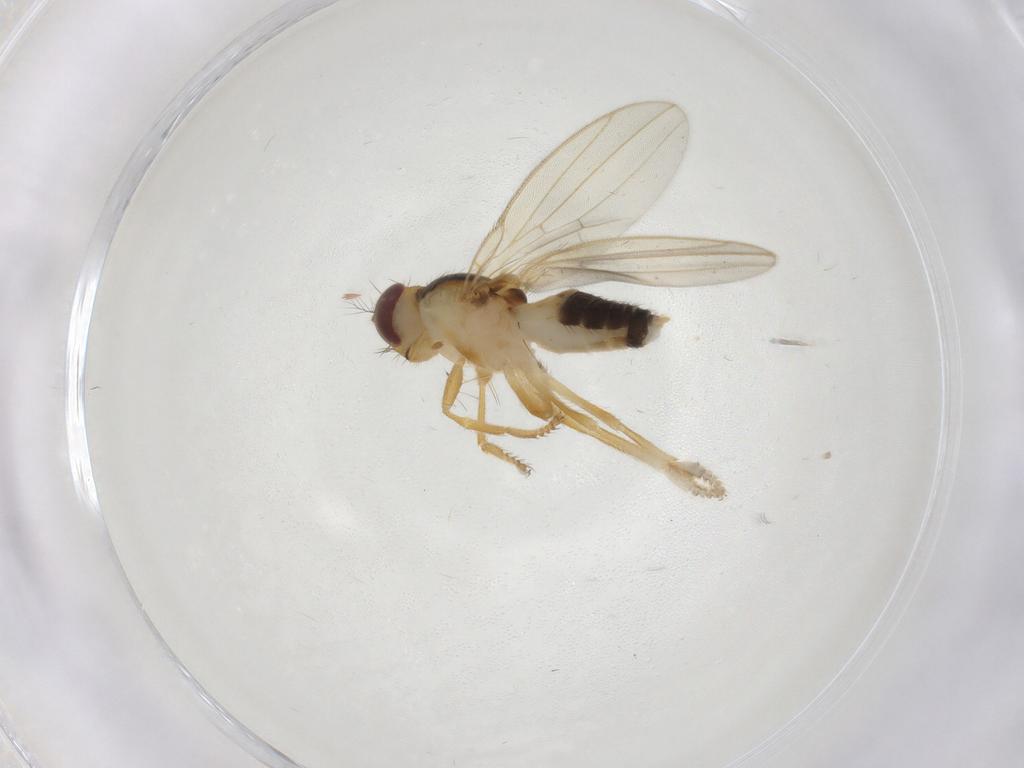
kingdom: Animalia
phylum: Arthropoda
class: Insecta
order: Diptera
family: Periscelididae
